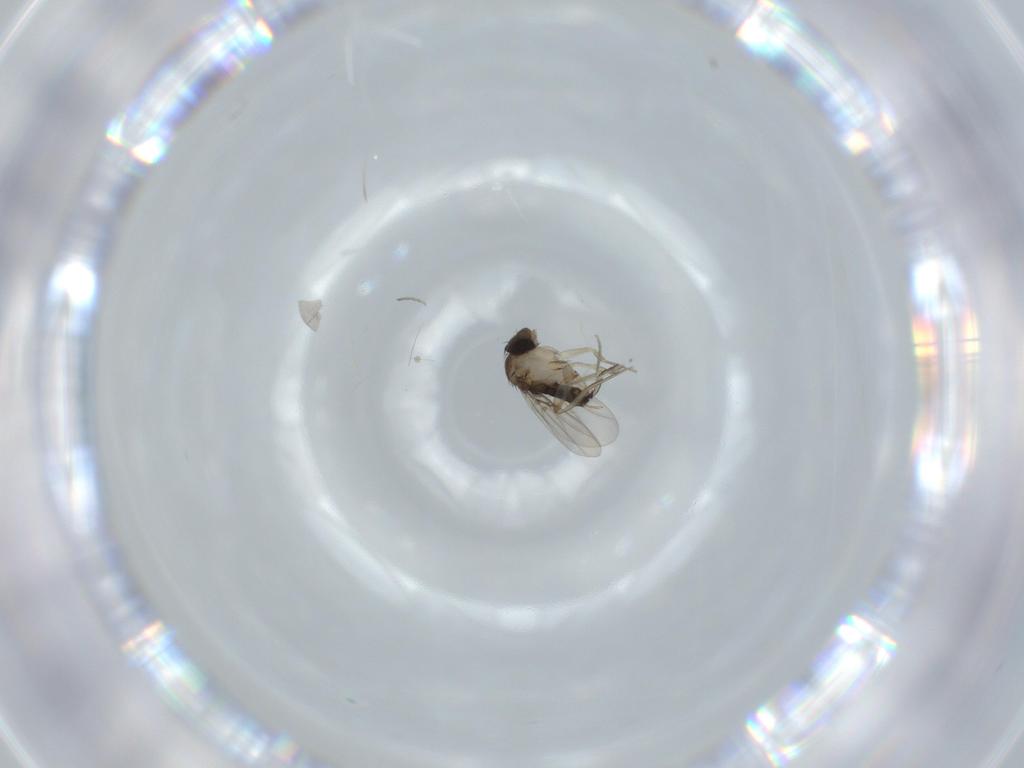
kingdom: Animalia
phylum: Arthropoda
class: Insecta
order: Diptera
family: Phoridae
